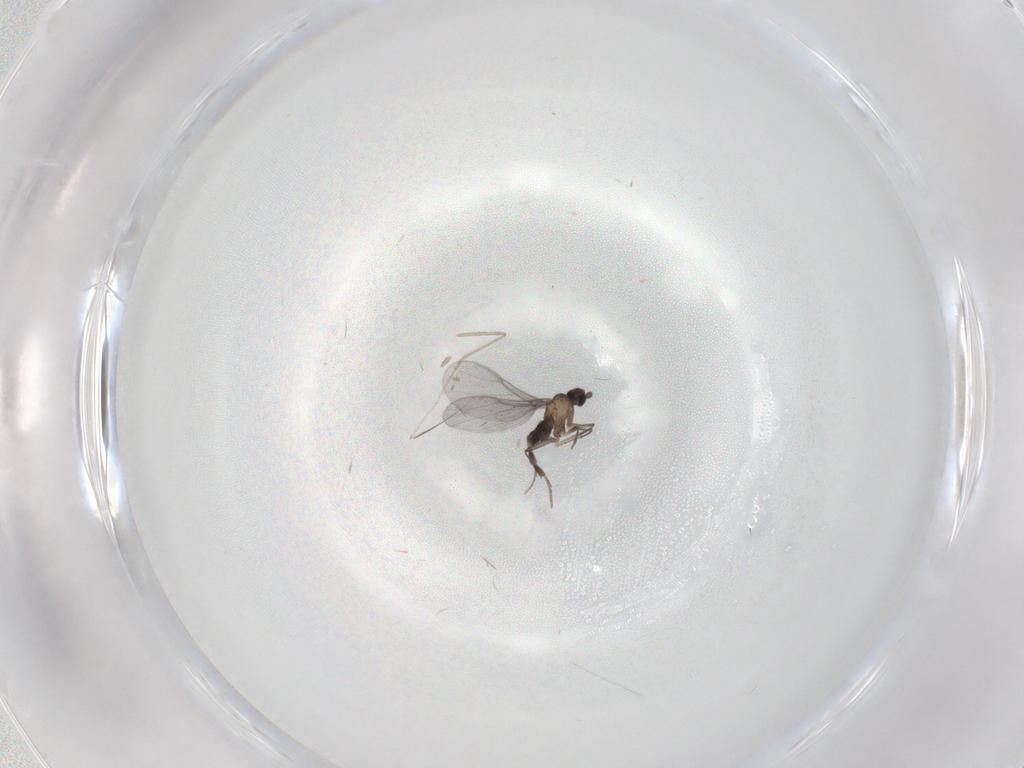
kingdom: Animalia
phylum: Arthropoda
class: Insecta
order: Diptera
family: Phoridae
